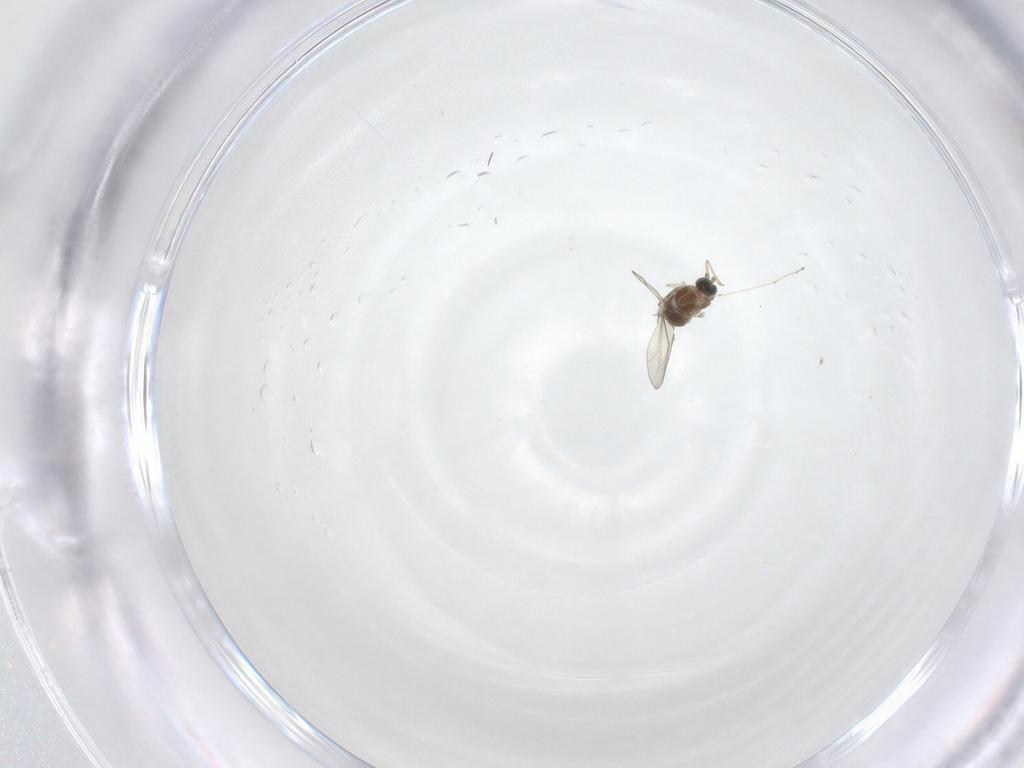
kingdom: Animalia
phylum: Arthropoda
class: Insecta
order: Diptera
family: Cecidomyiidae
